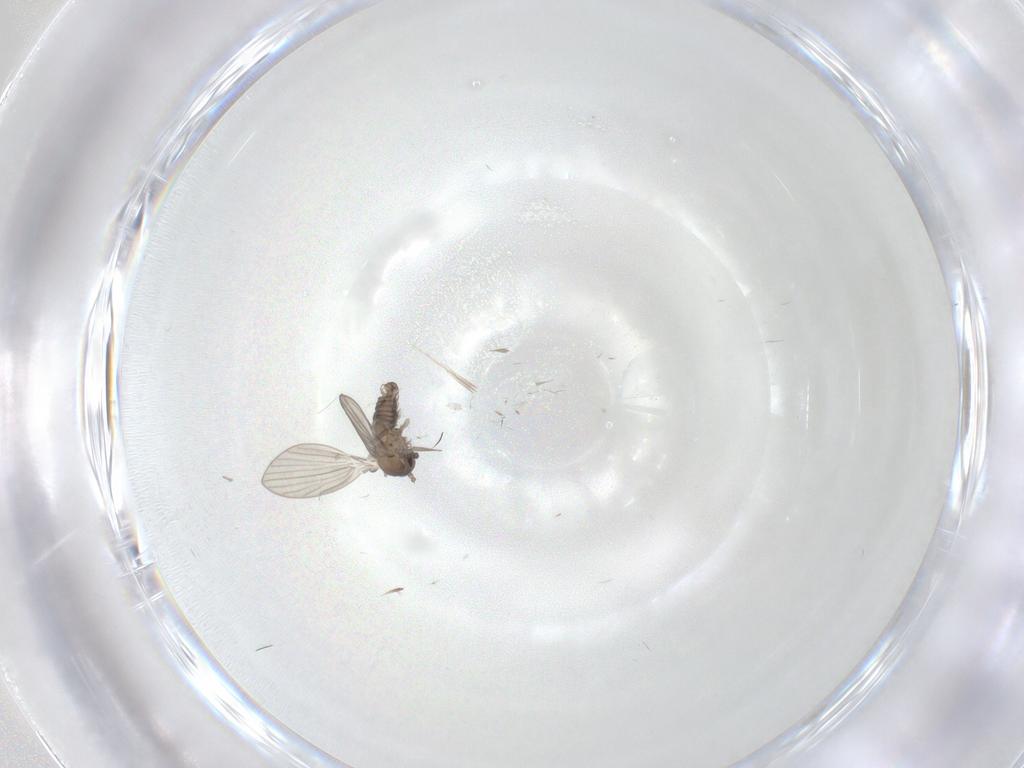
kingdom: Animalia
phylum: Arthropoda
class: Insecta
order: Diptera
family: Psychodidae
